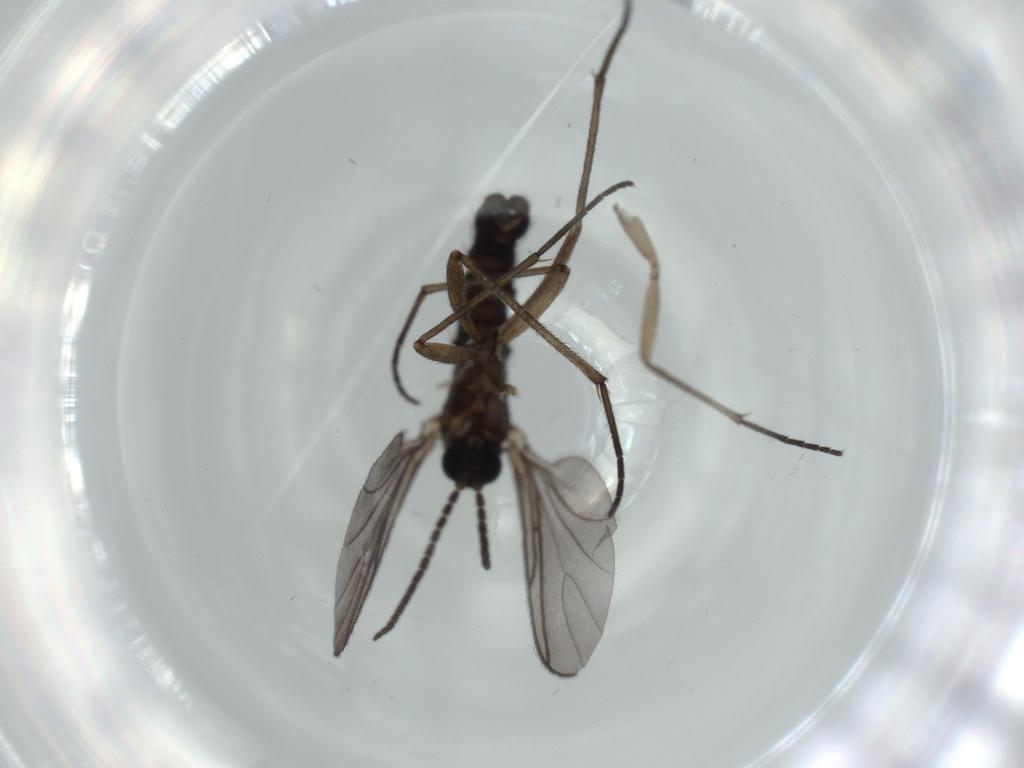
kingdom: Animalia
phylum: Arthropoda
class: Insecta
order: Diptera
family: Sciaridae
